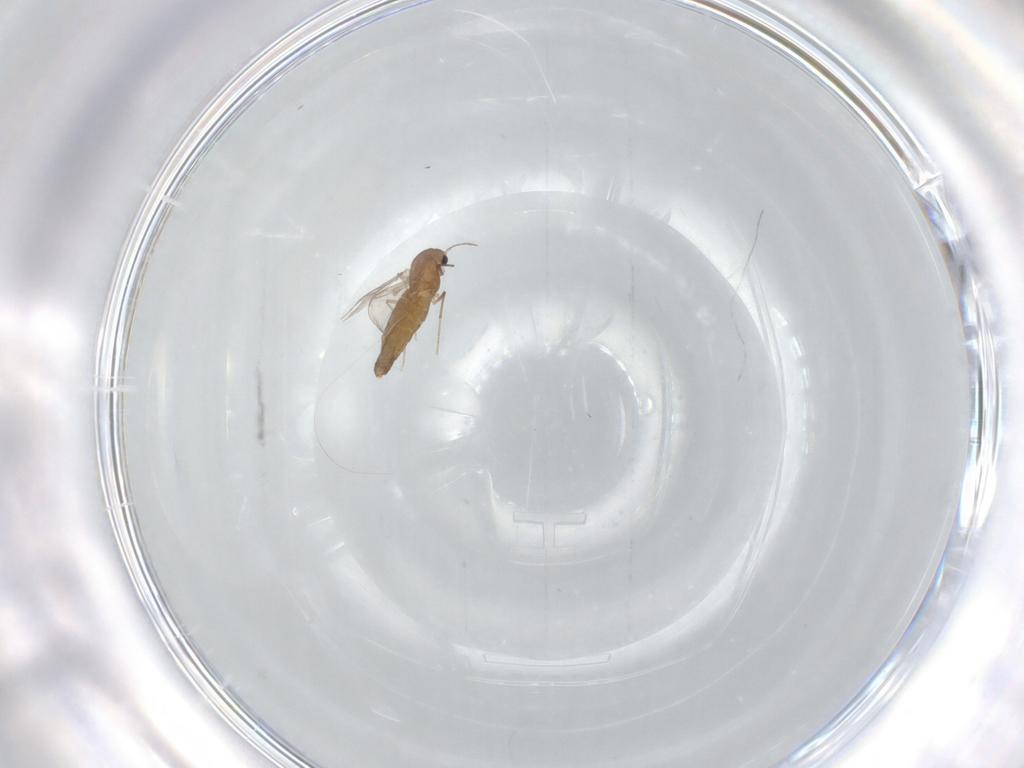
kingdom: Animalia
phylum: Arthropoda
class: Insecta
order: Diptera
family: Chironomidae
